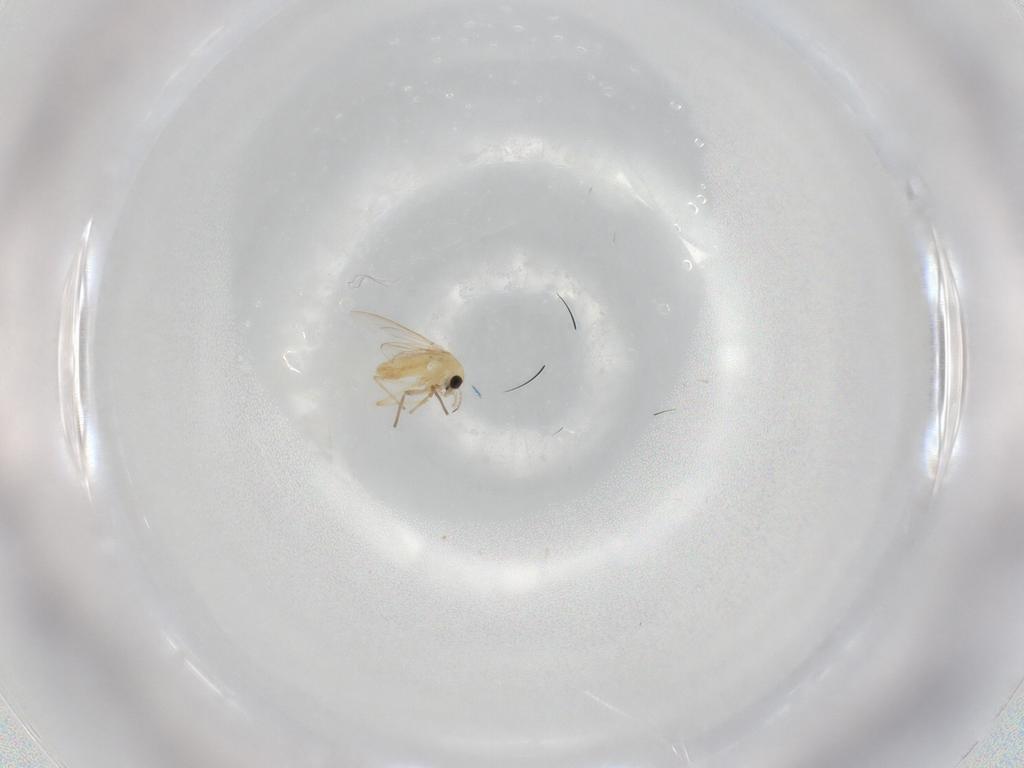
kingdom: Animalia
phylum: Arthropoda
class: Insecta
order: Diptera
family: Chironomidae
